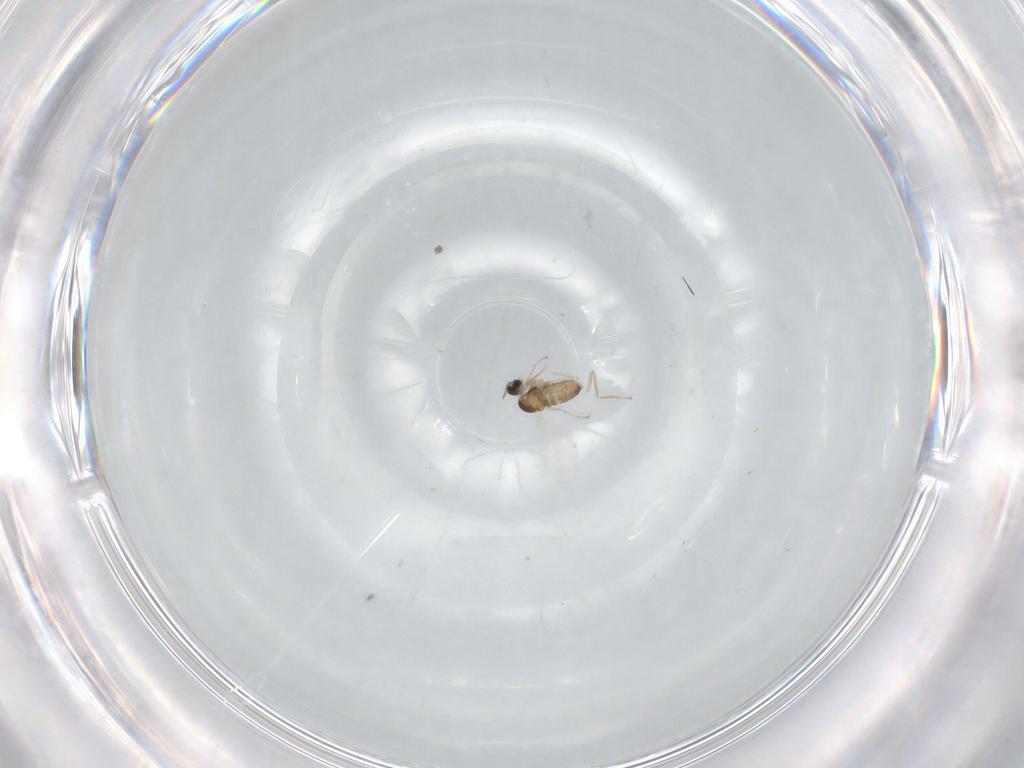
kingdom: Animalia
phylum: Arthropoda
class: Insecta
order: Diptera
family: Cecidomyiidae
